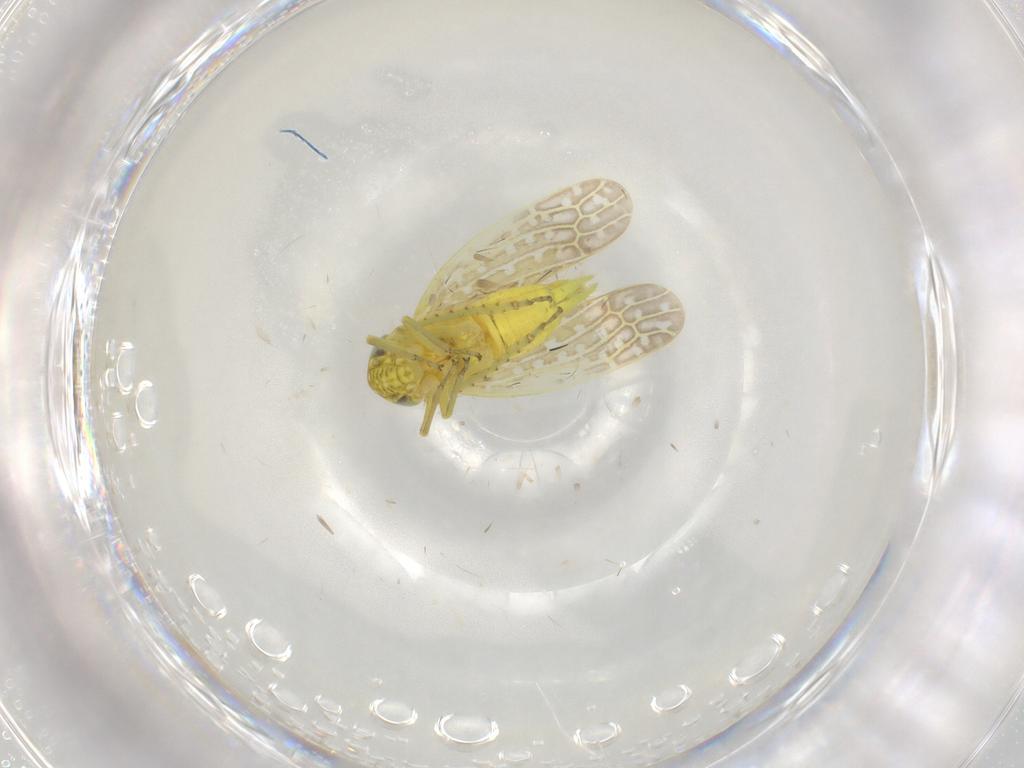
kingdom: Animalia
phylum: Arthropoda
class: Insecta
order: Hemiptera
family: Cicadellidae
